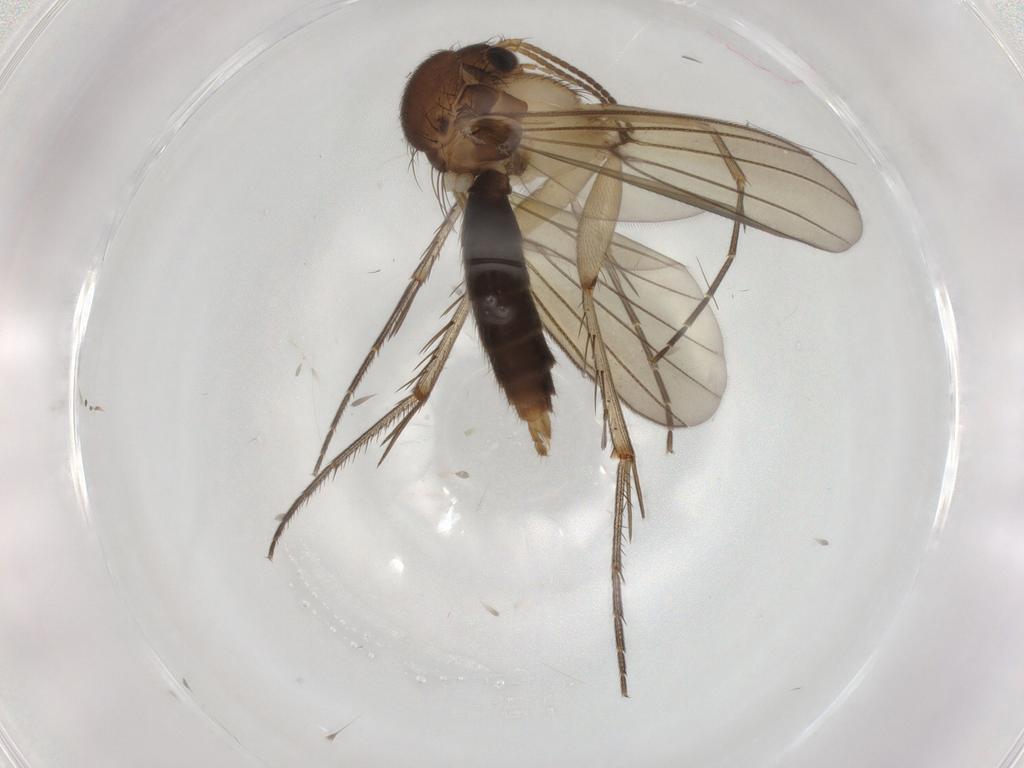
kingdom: Animalia
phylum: Arthropoda
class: Insecta
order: Diptera
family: Mycetophilidae
